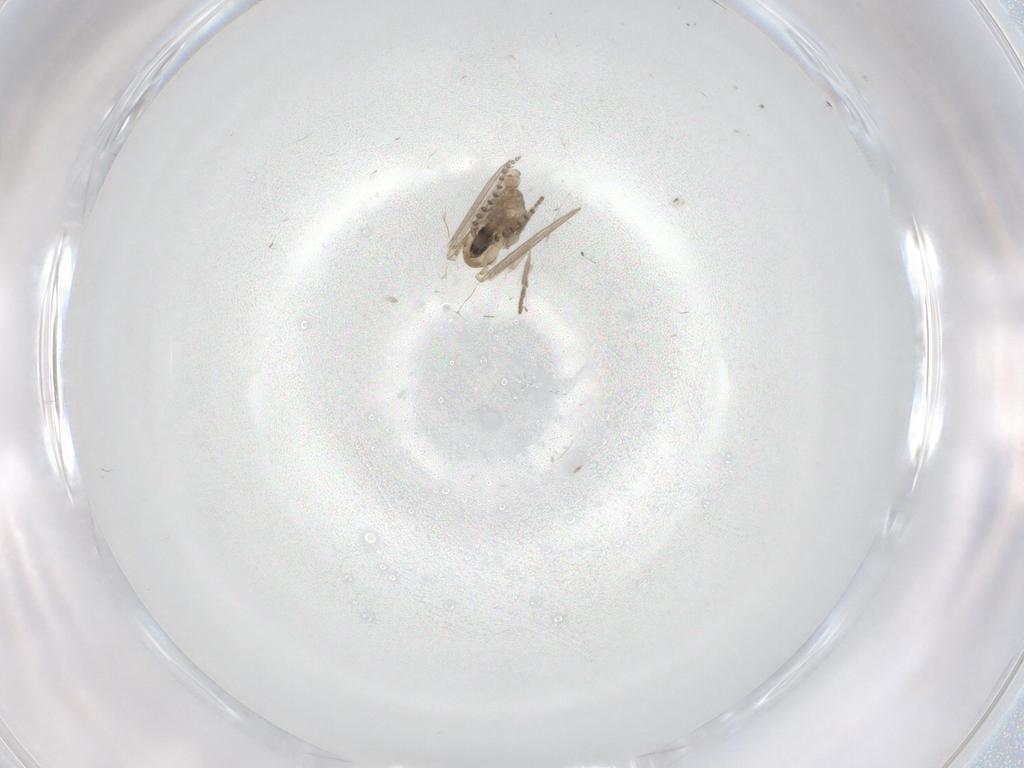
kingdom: Animalia
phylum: Arthropoda
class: Insecta
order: Diptera
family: Psychodidae
